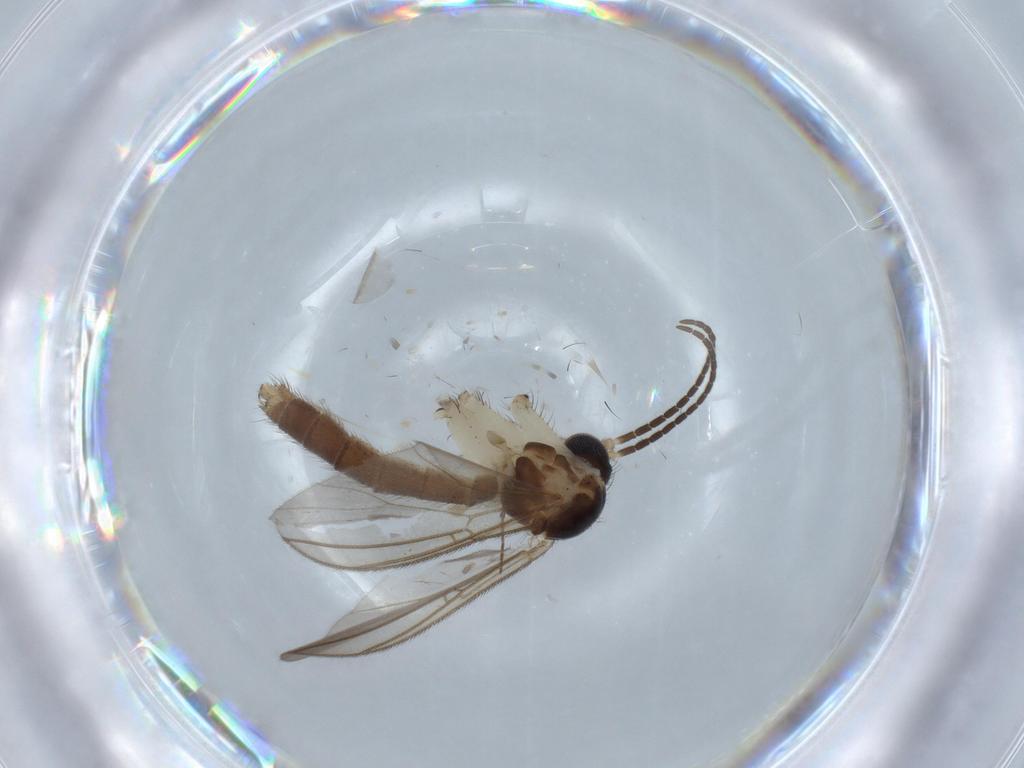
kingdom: Animalia
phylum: Arthropoda
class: Insecta
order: Diptera
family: Mycetophilidae
